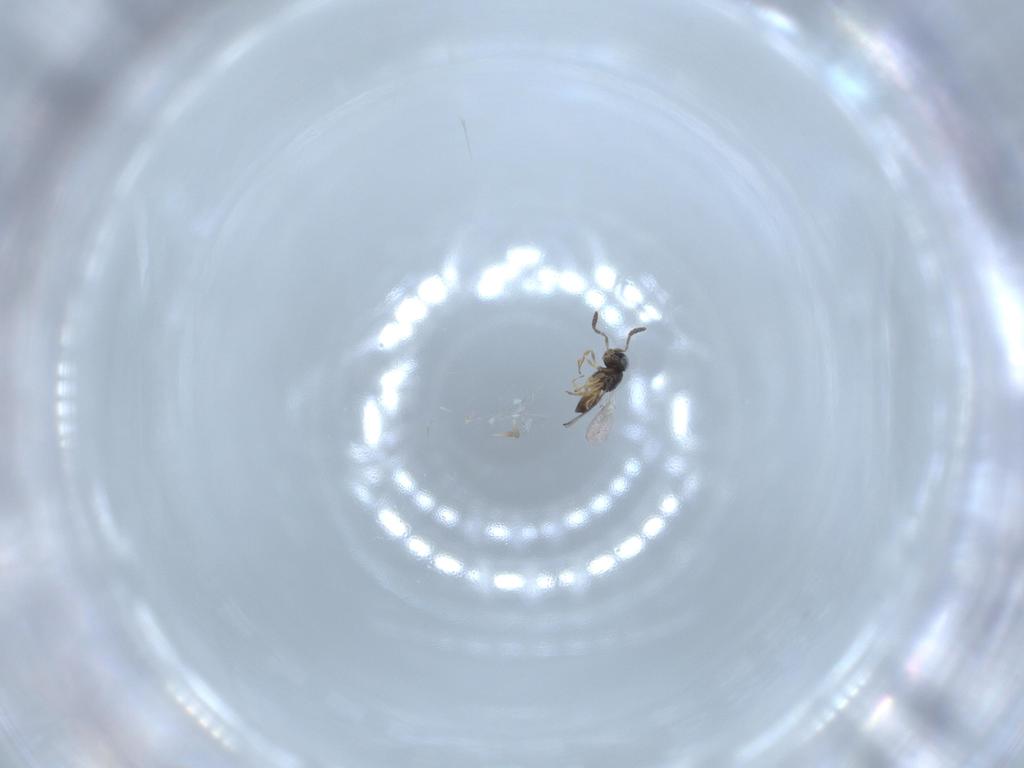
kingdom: Animalia
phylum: Arthropoda
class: Insecta
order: Hymenoptera
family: Scelionidae
